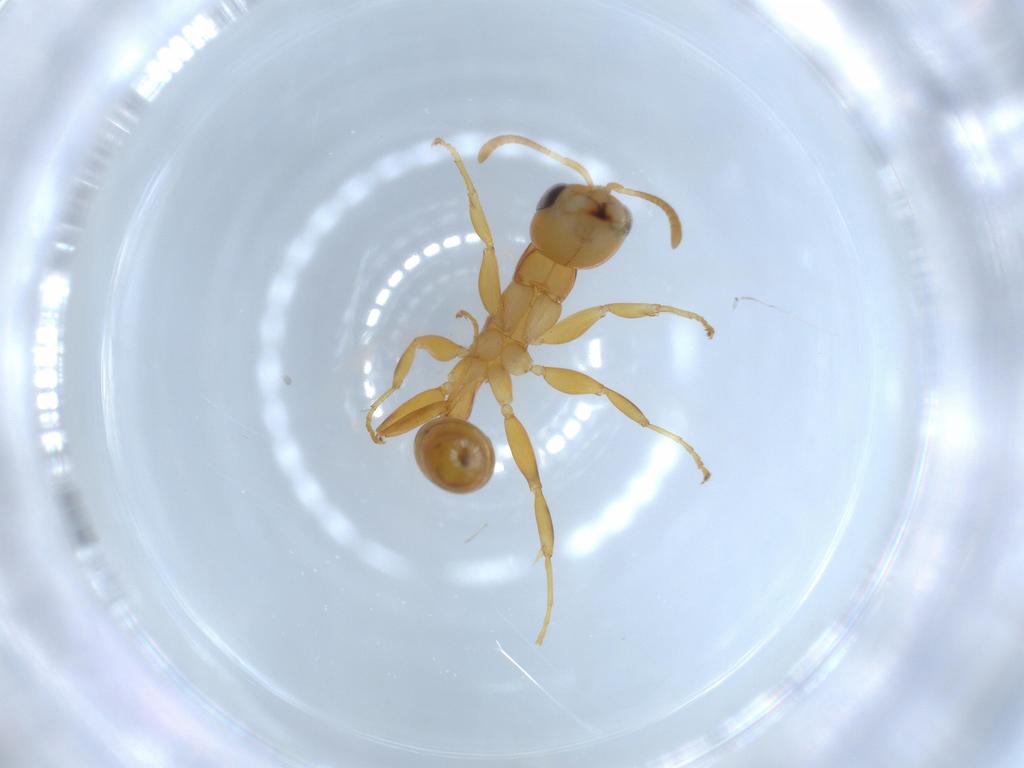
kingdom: Animalia
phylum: Arthropoda
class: Insecta
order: Hymenoptera
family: Formicidae
